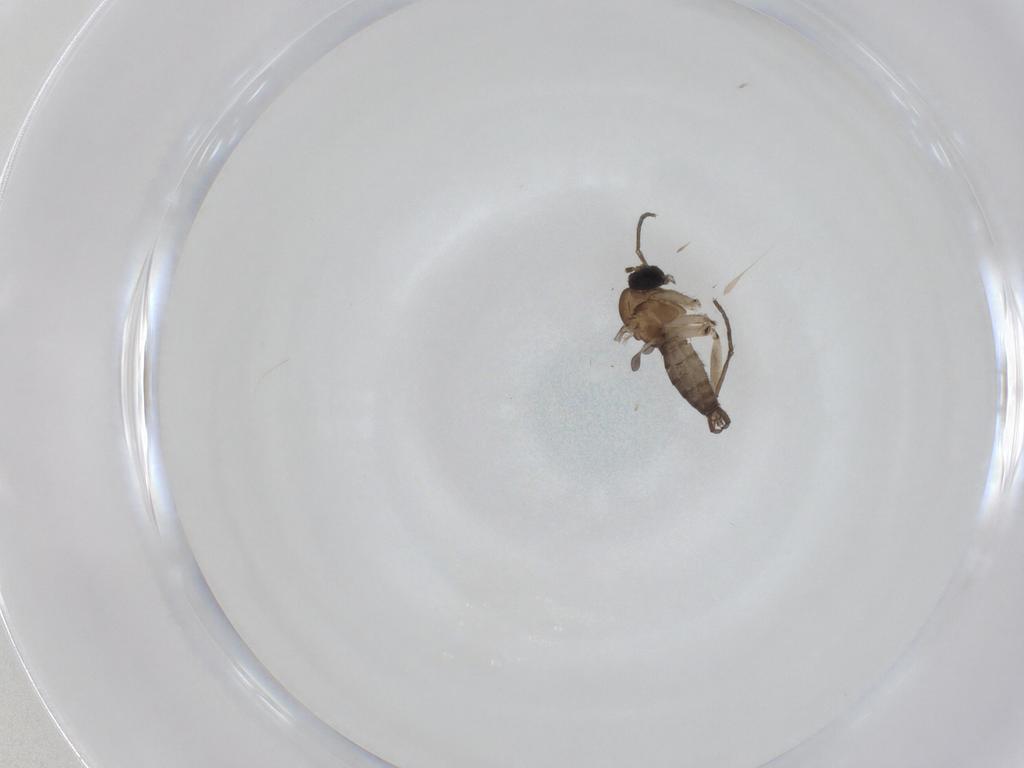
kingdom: Animalia
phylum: Arthropoda
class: Insecta
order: Diptera
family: Sciaridae
